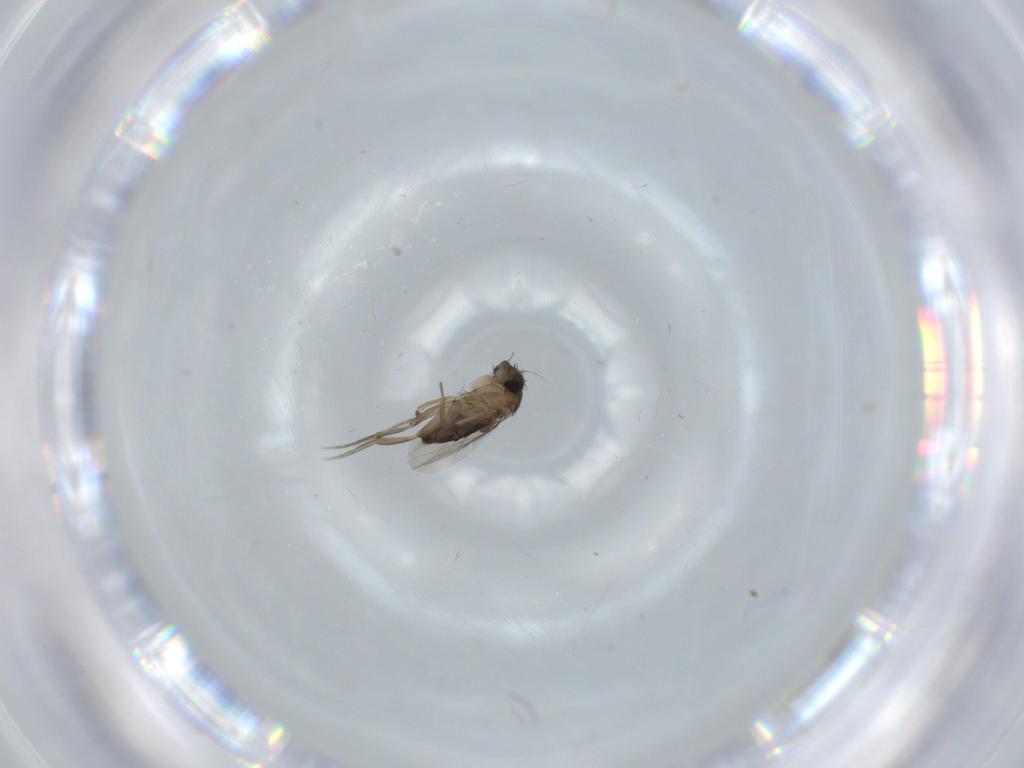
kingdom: Animalia
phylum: Arthropoda
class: Insecta
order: Diptera
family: Phoridae
